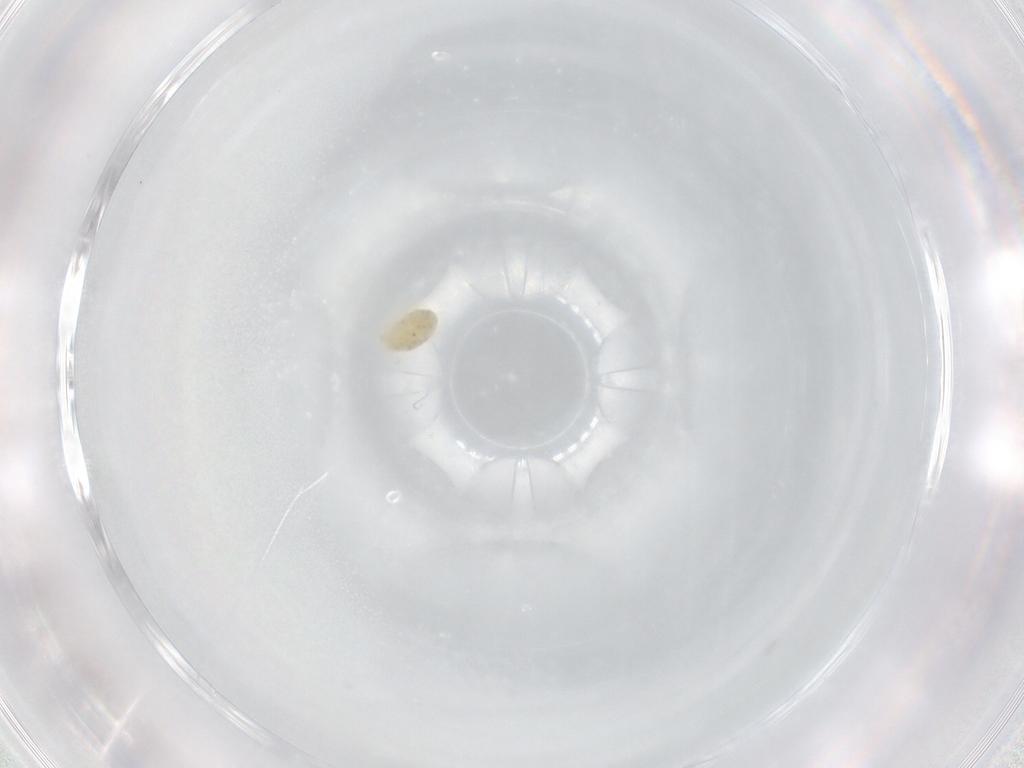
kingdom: Animalia
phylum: Arthropoda
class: Arachnida
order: Trombidiformes
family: Eupodidae
